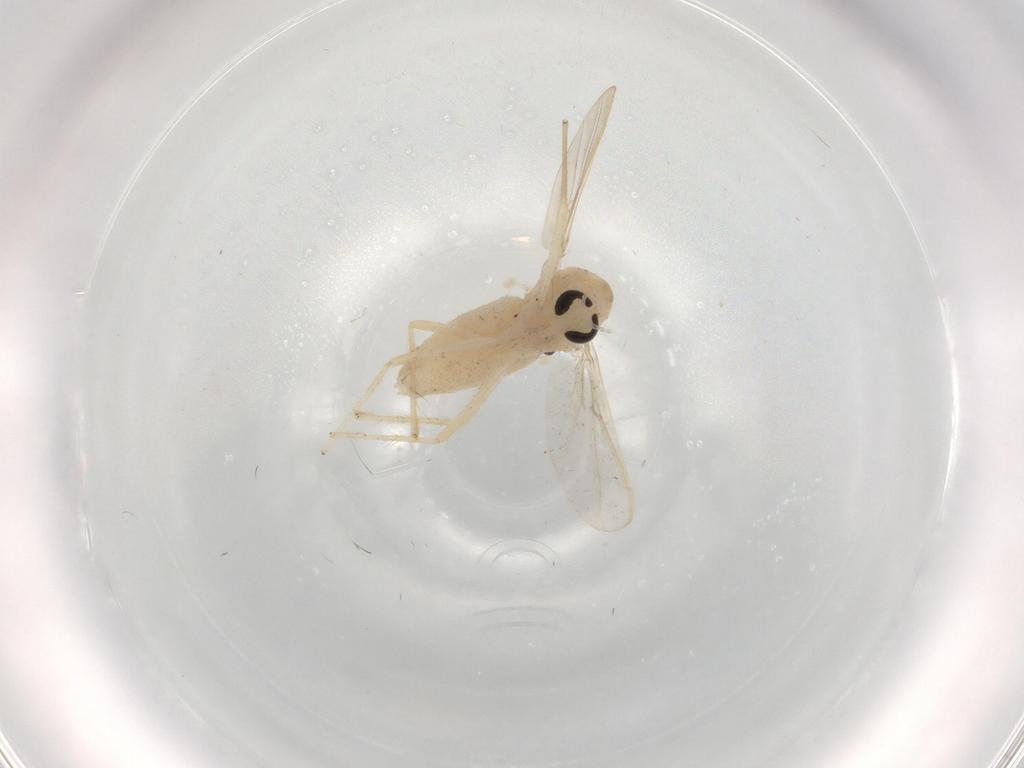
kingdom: Animalia
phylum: Arthropoda
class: Insecta
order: Diptera
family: Chironomidae
